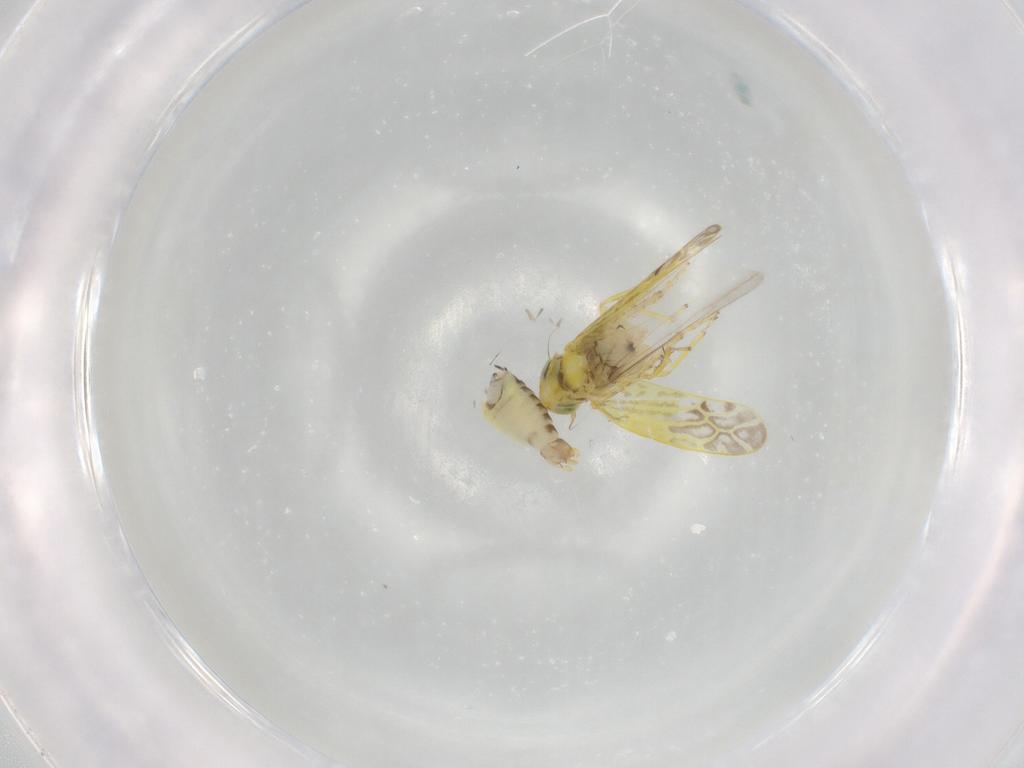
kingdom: Animalia
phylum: Arthropoda
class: Insecta
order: Hemiptera
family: Cicadellidae
